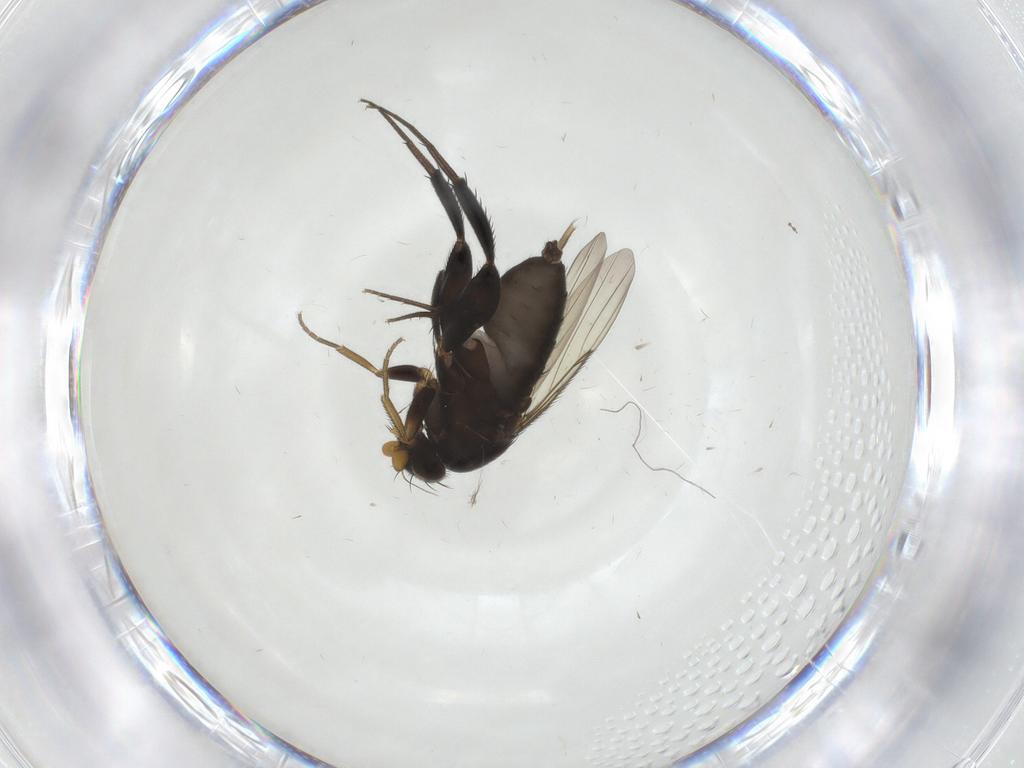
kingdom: Animalia
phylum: Arthropoda
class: Insecta
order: Diptera
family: Phoridae
